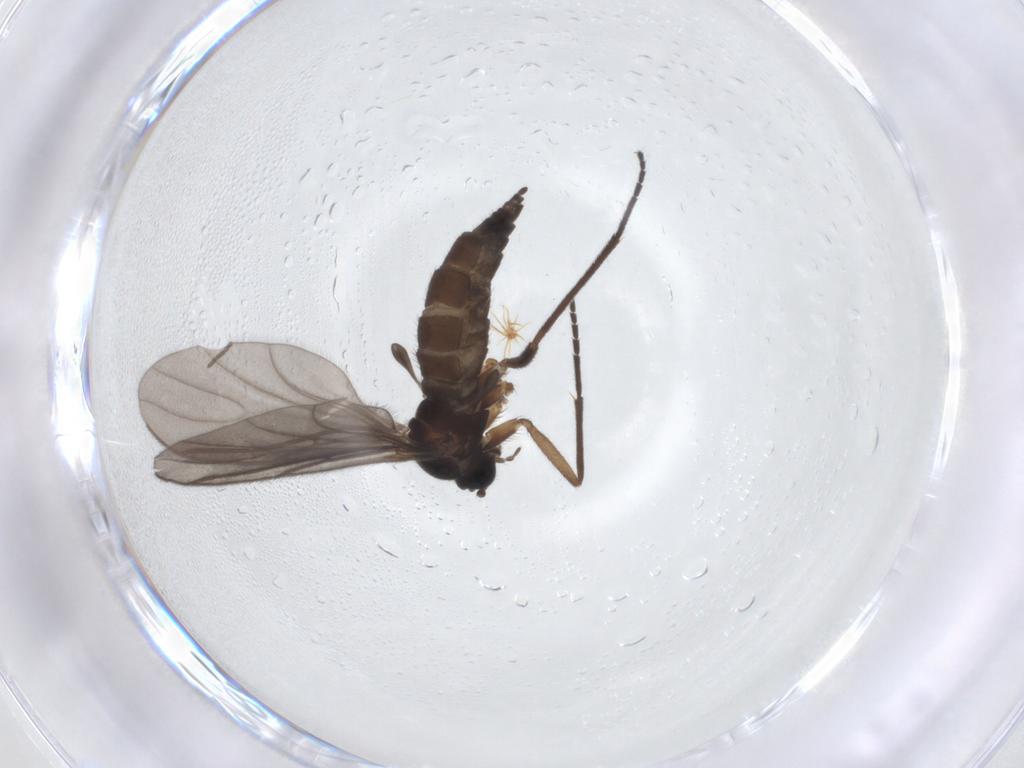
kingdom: Animalia
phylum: Arthropoda
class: Insecta
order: Diptera
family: Sciaridae
